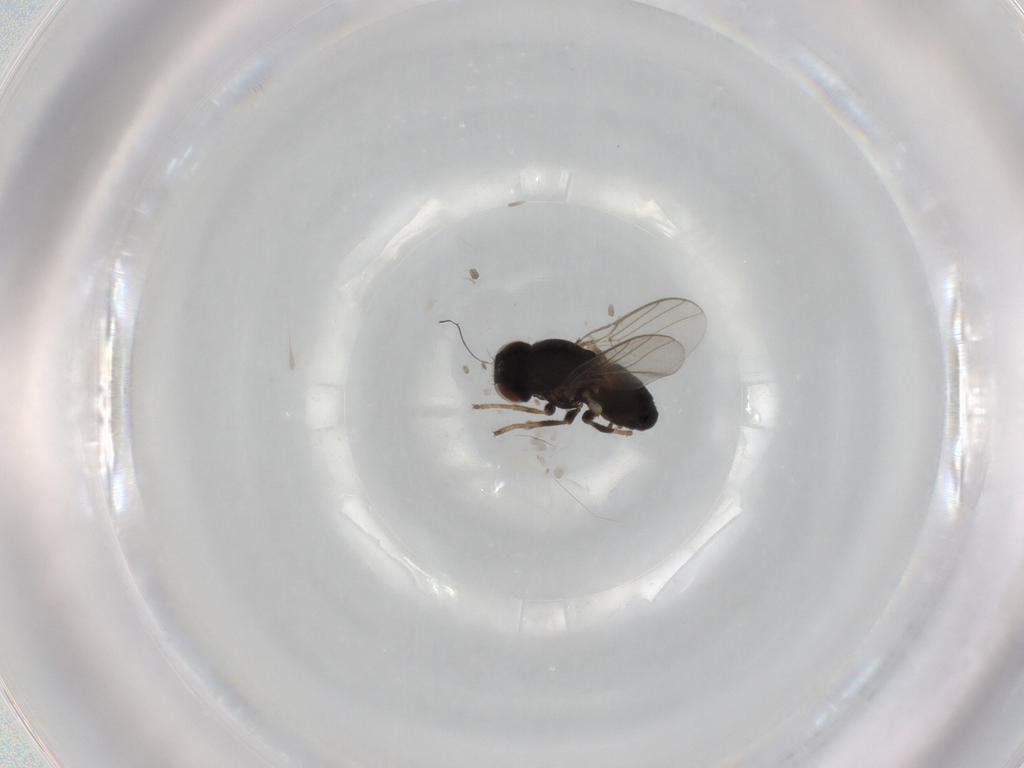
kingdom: Animalia
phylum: Arthropoda
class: Insecta
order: Diptera
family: Chloropidae
